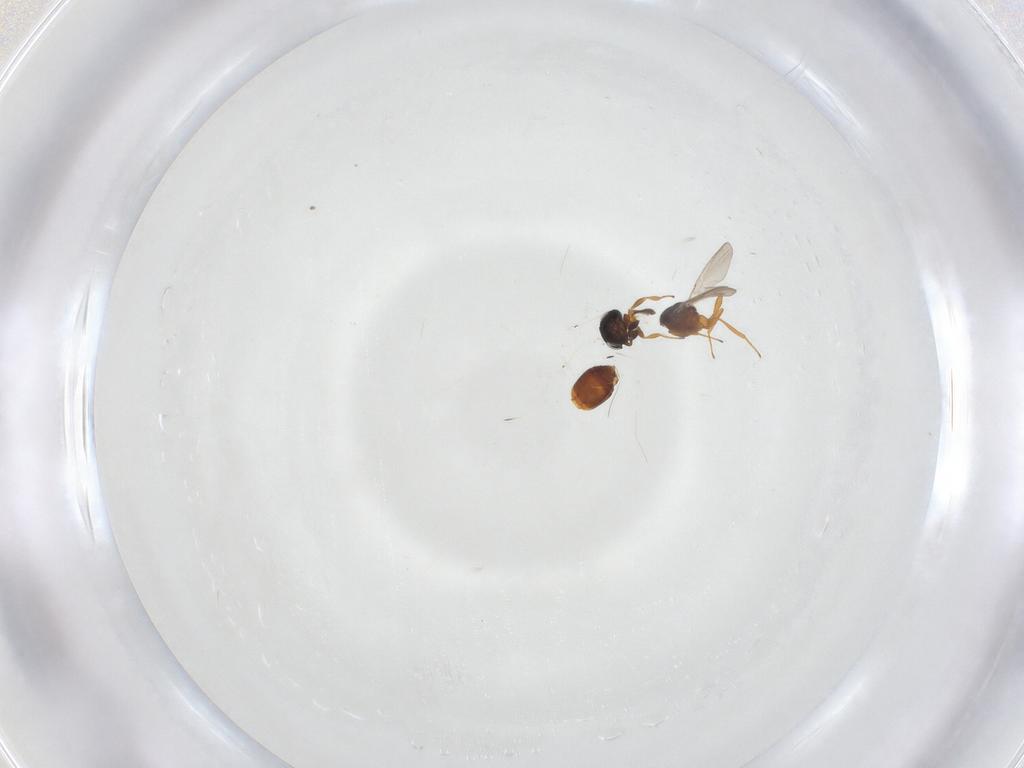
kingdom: Animalia
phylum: Arthropoda
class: Insecta
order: Hymenoptera
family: Platygastridae
